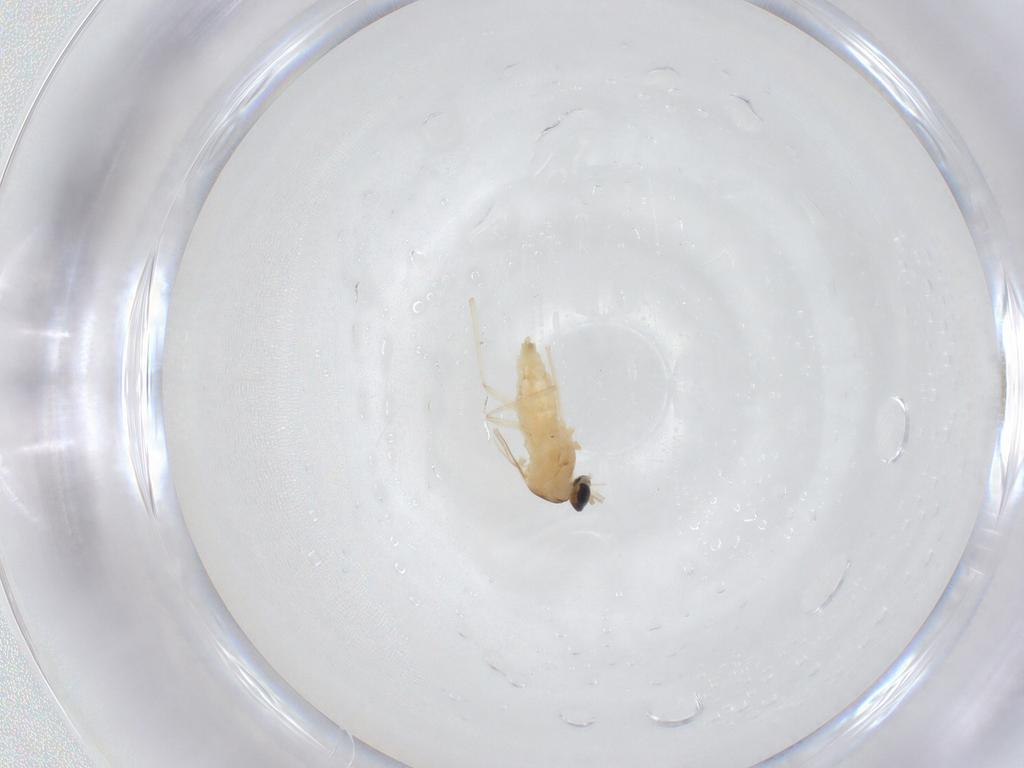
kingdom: Animalia
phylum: Arthropoda
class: Insecta
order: Diptera
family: Cecidomyiidae
